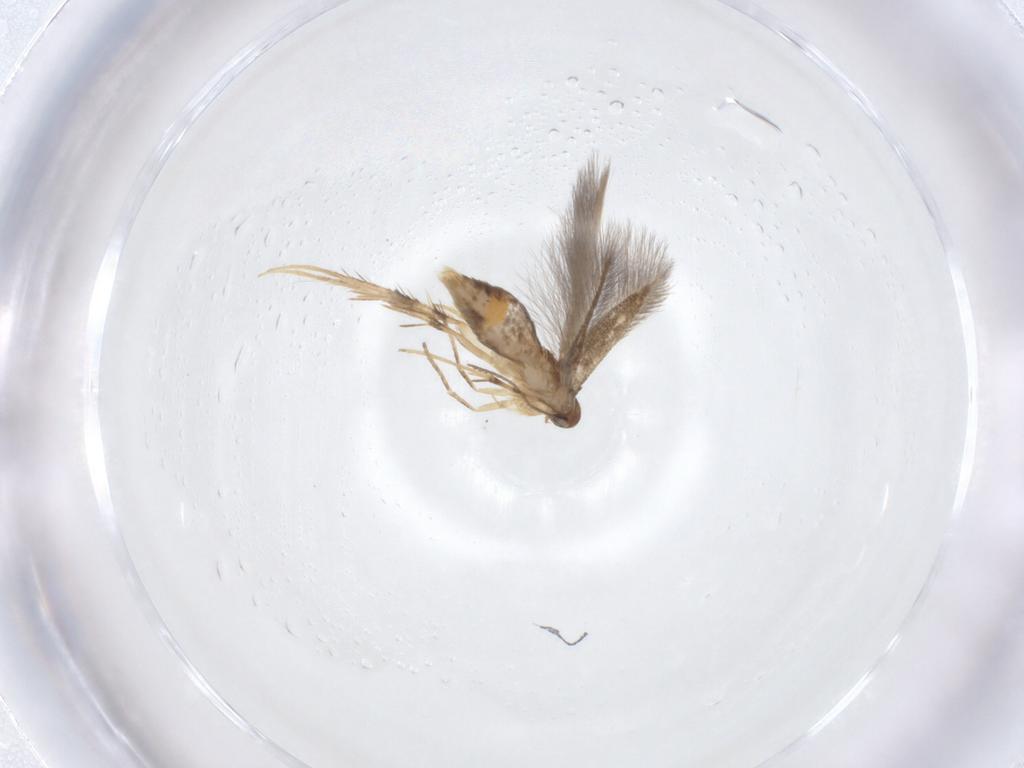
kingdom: Animalia
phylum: Arthropoda
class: Insecta
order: Lepidoptera
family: Pyralidae
